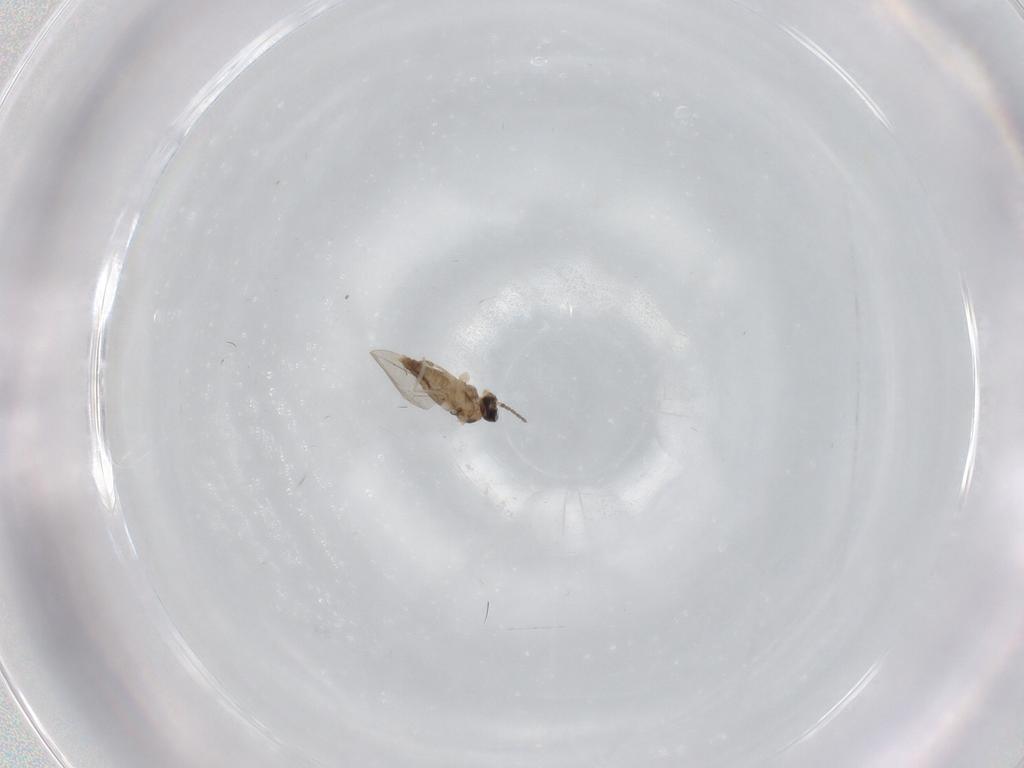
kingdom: Animalia
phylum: Arthropoda
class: Insecta
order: Diptera
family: Cecidomyiidae
